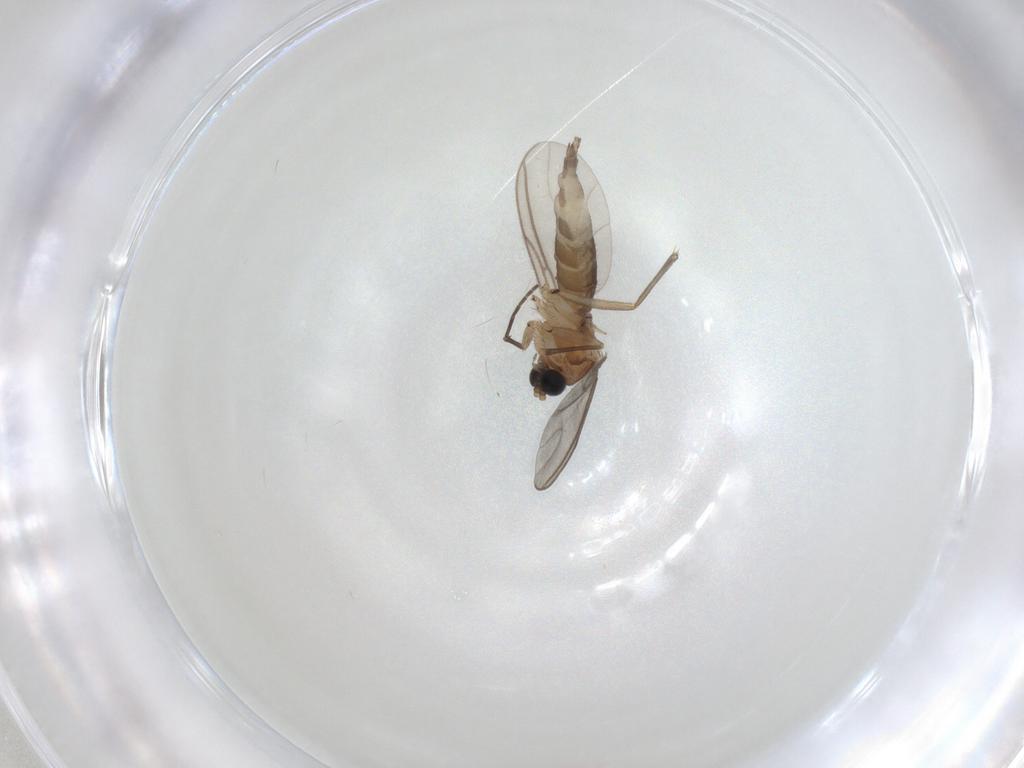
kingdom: Animalia
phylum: Arthropoda
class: Insecta
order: Diptera
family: Sciaridae
